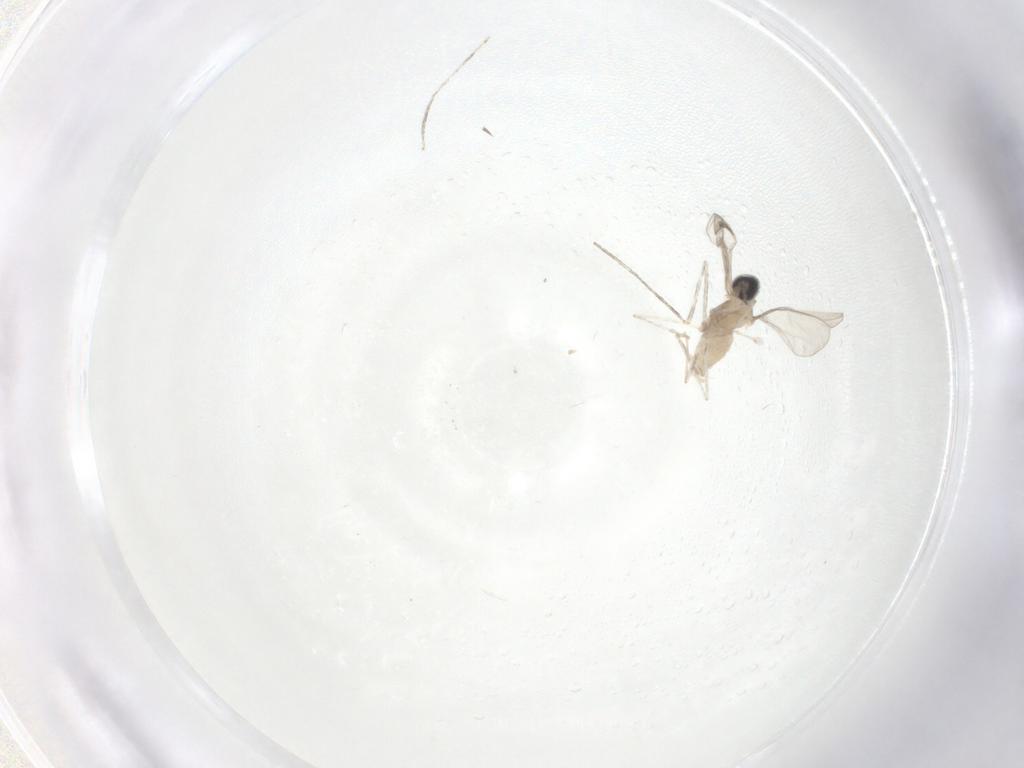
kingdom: Animalia
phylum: Arthropoda
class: Insecta
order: Diptera
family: Cecidomyiidae
